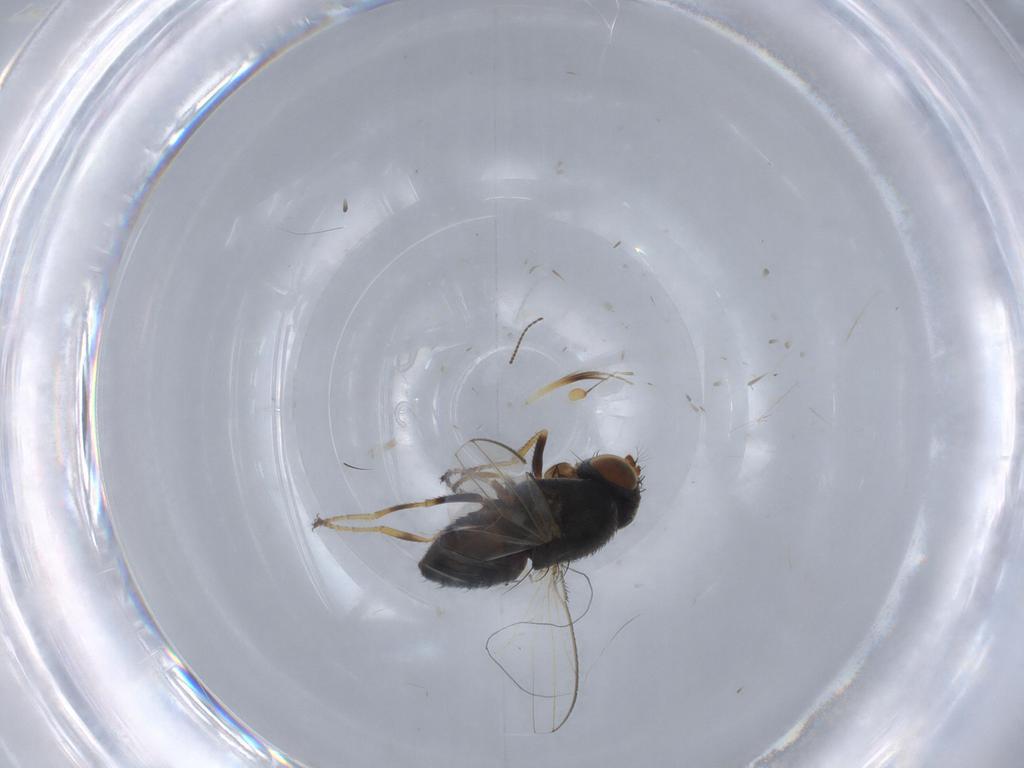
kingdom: Animalia
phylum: Arthropoda
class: Insecta
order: Diptera
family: Ceratopogonidae
